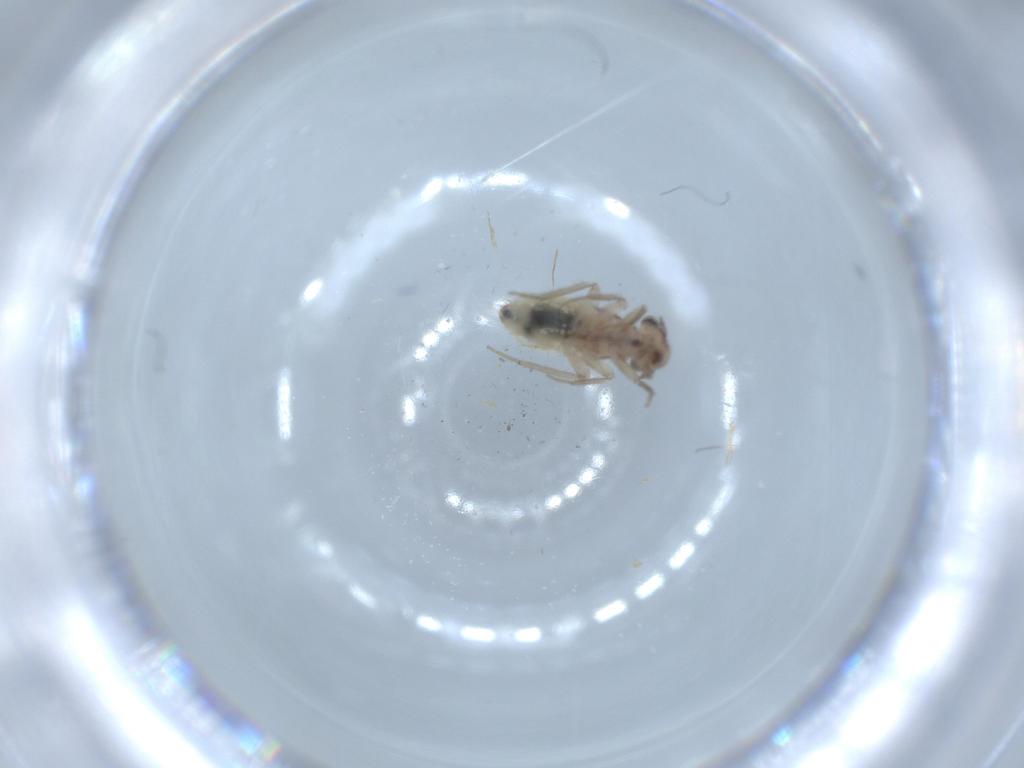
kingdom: Animalia
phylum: Arthropoda
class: Insecta
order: Psocodea
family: Lepidopsocidae
